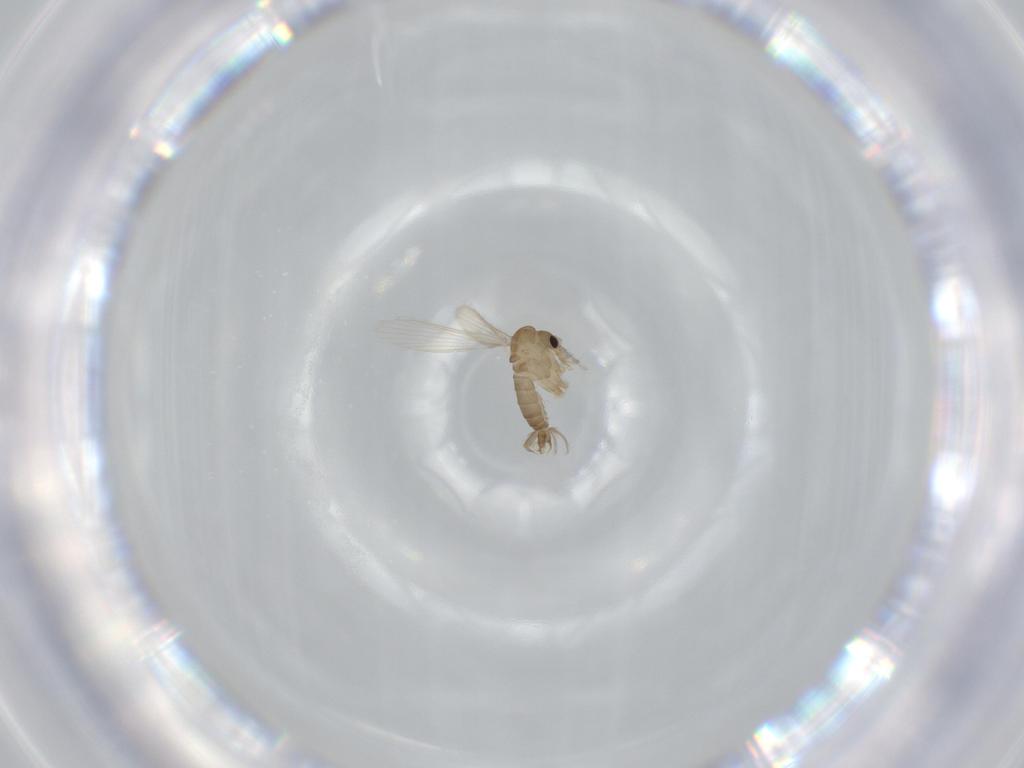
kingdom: Animalia
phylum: Arthropoda
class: Insecta
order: Diptera
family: Psychodidae
